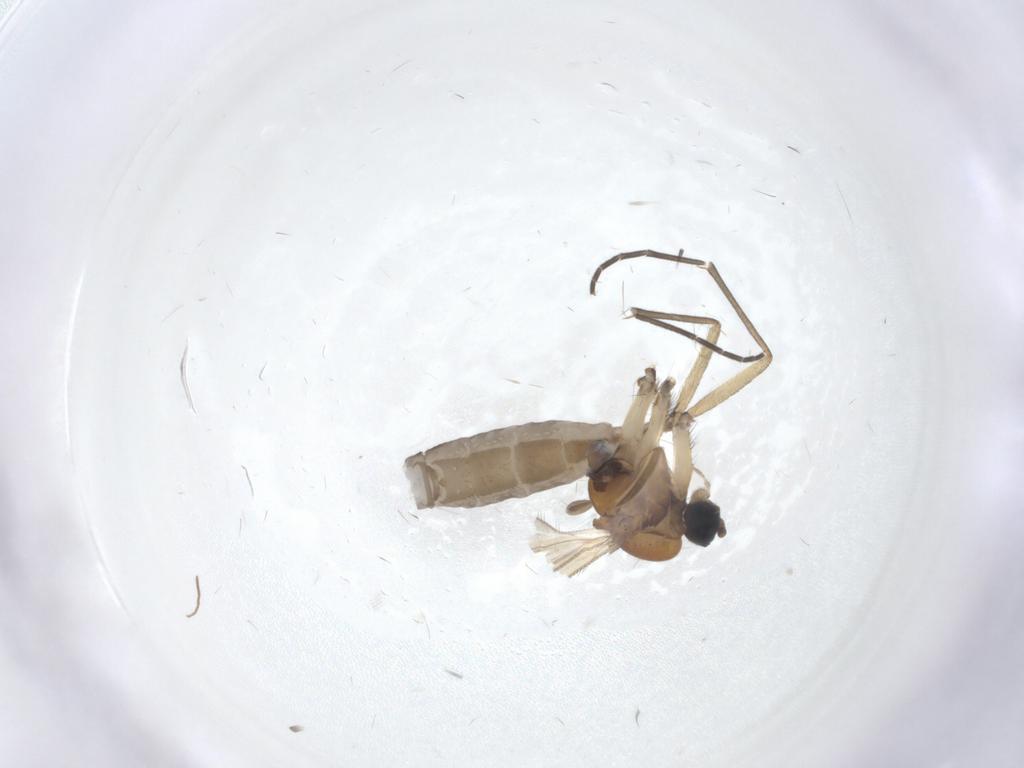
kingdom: Animalia
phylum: Arthropoda
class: Insecta
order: Diptera
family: Sciaridae
